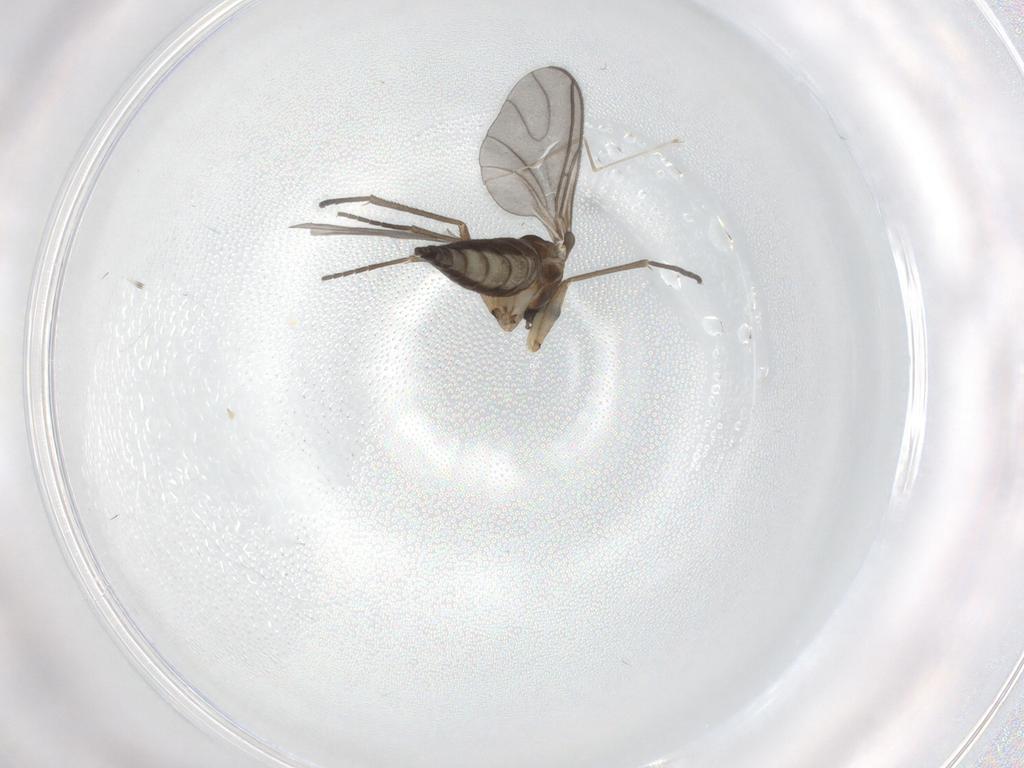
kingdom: Animalia
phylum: Arthropoda
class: Insecta
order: Diptera
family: Sciaridae
